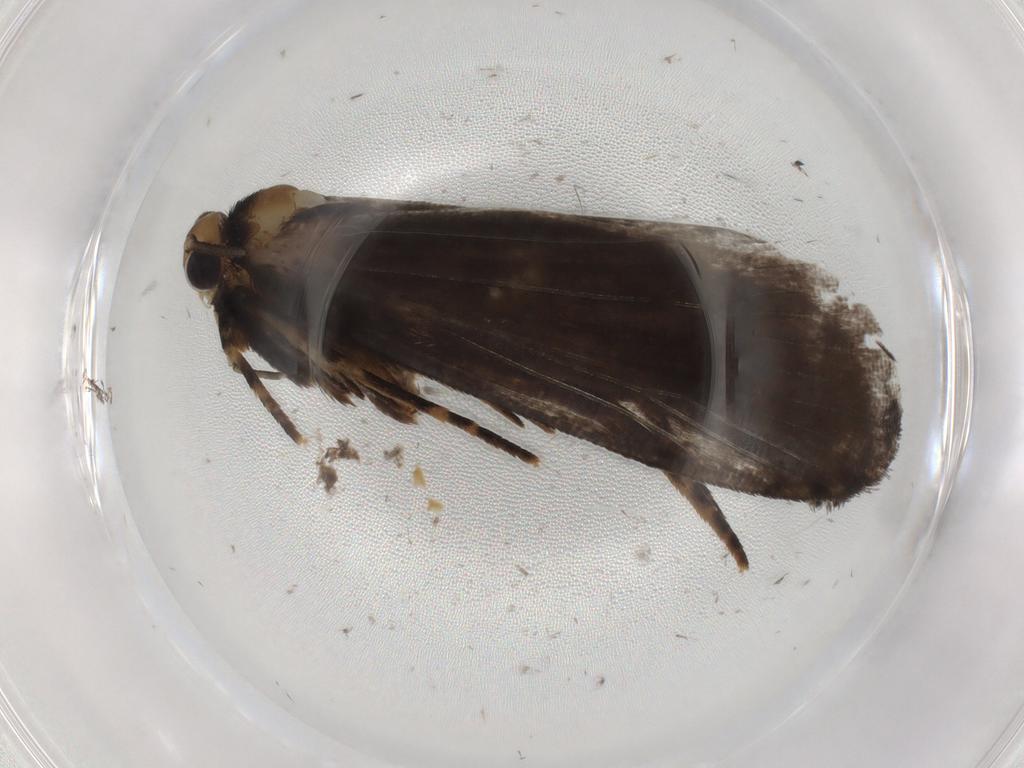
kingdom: Animalia
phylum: Arthropoda
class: Insecta
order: Lepidoptera
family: Tineidae
